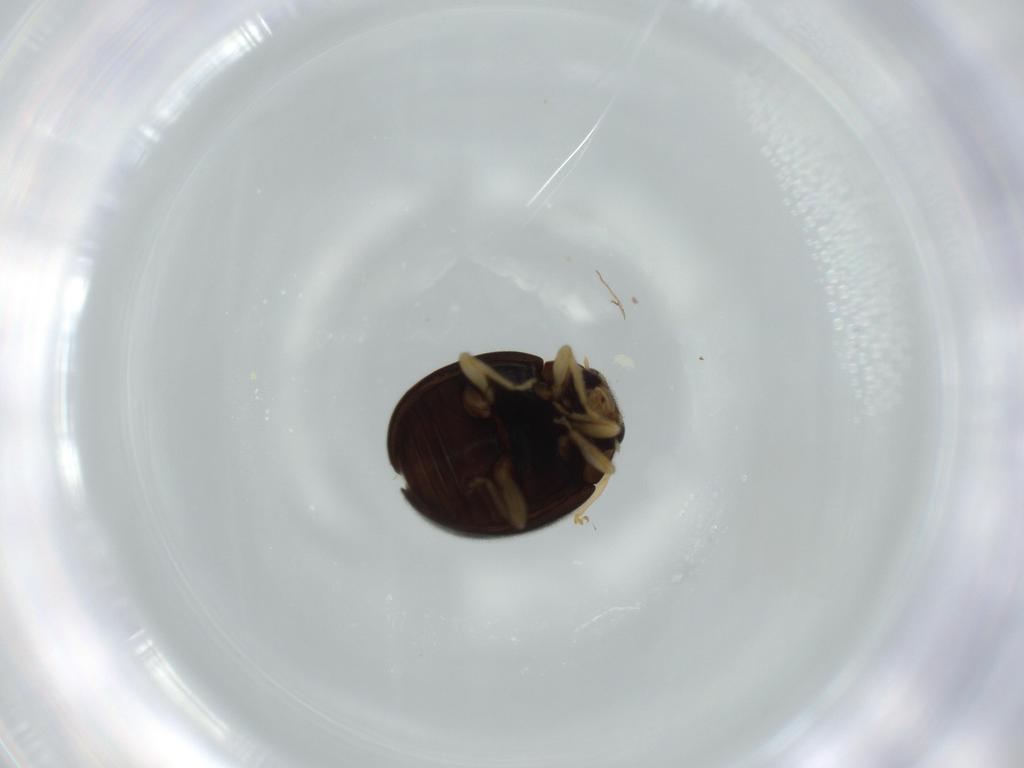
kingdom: Animalia
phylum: Arthropoda
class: Insecta
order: Coleoptera
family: Coccinellidae
